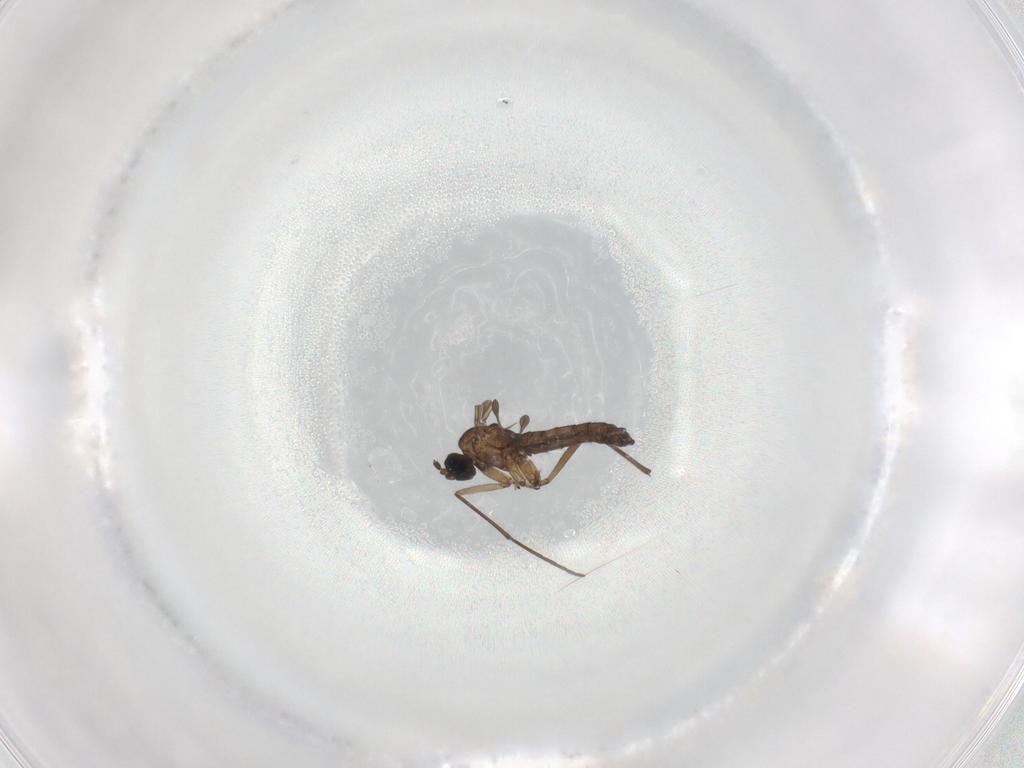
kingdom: Animalia
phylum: Arthropoda
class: Insecta
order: Diptera
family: Sciaridae
